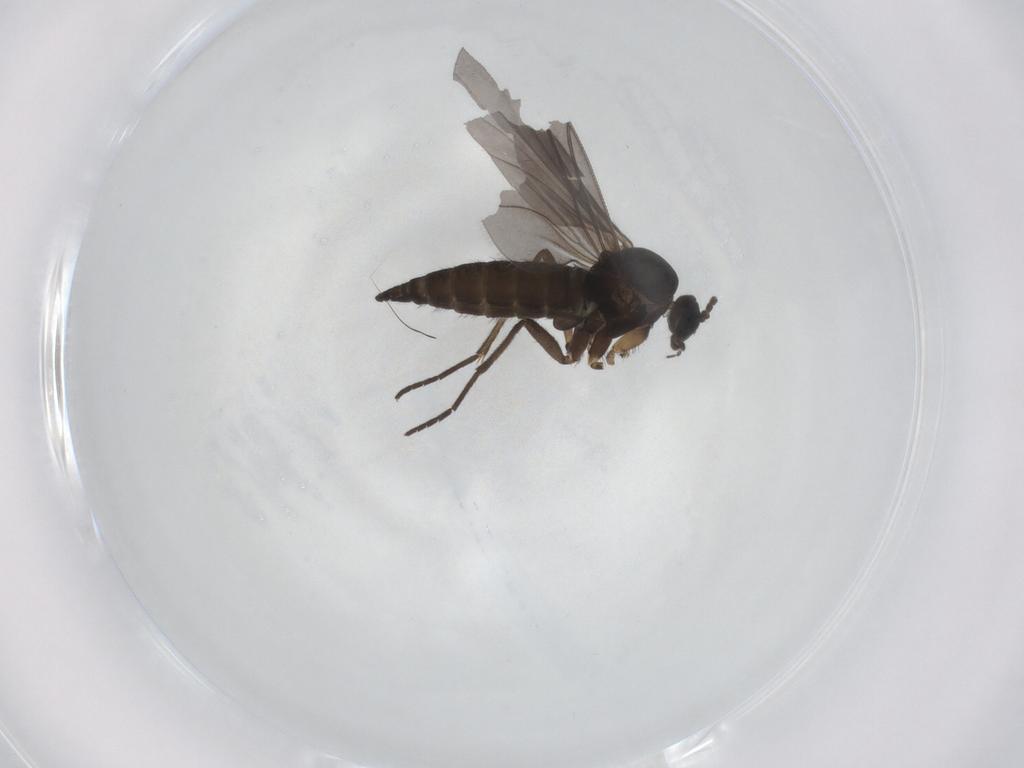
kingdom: Animalia
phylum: Arthropoda
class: Insecta
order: Diptera
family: Sciaridae
